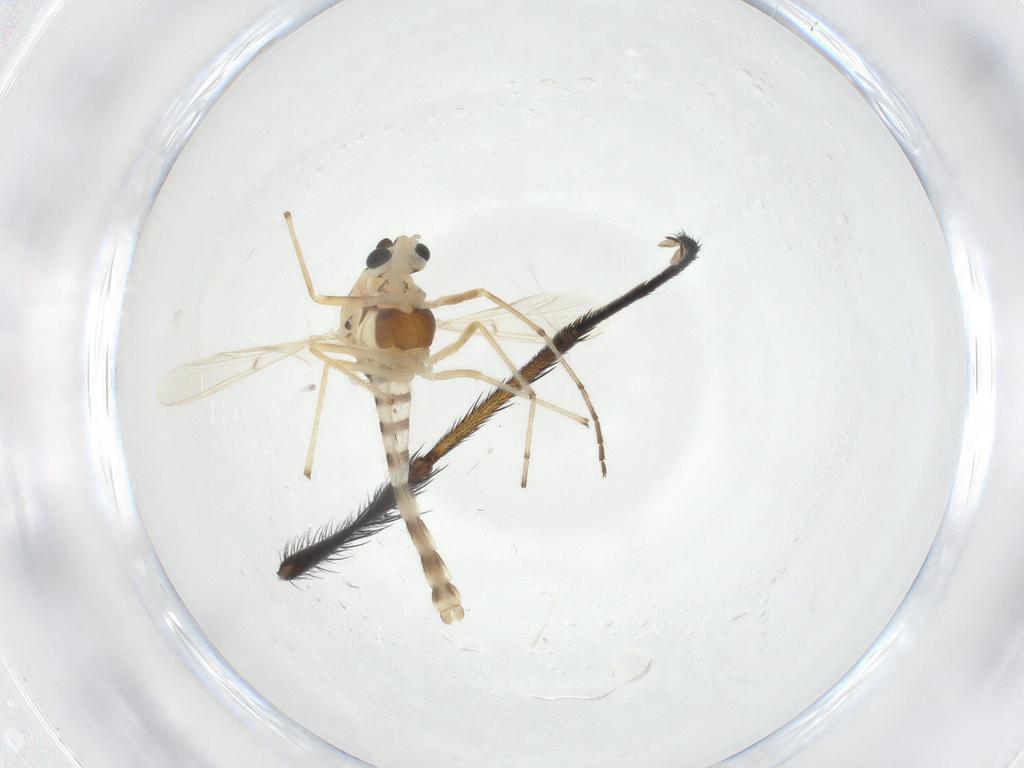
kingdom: Animalia
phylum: Arthropoda
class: Insecta
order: Diptera
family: Chironomidae
